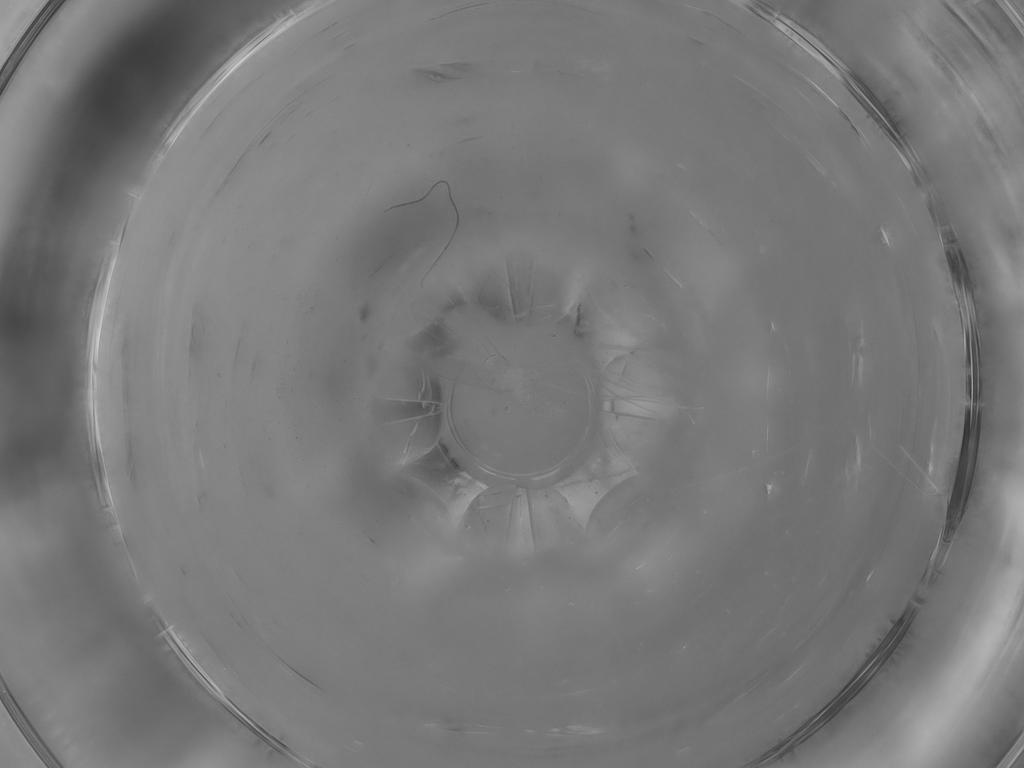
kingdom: Animalia
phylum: Arthropoda
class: Insecta
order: Diptera
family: Cecidomyiidae
